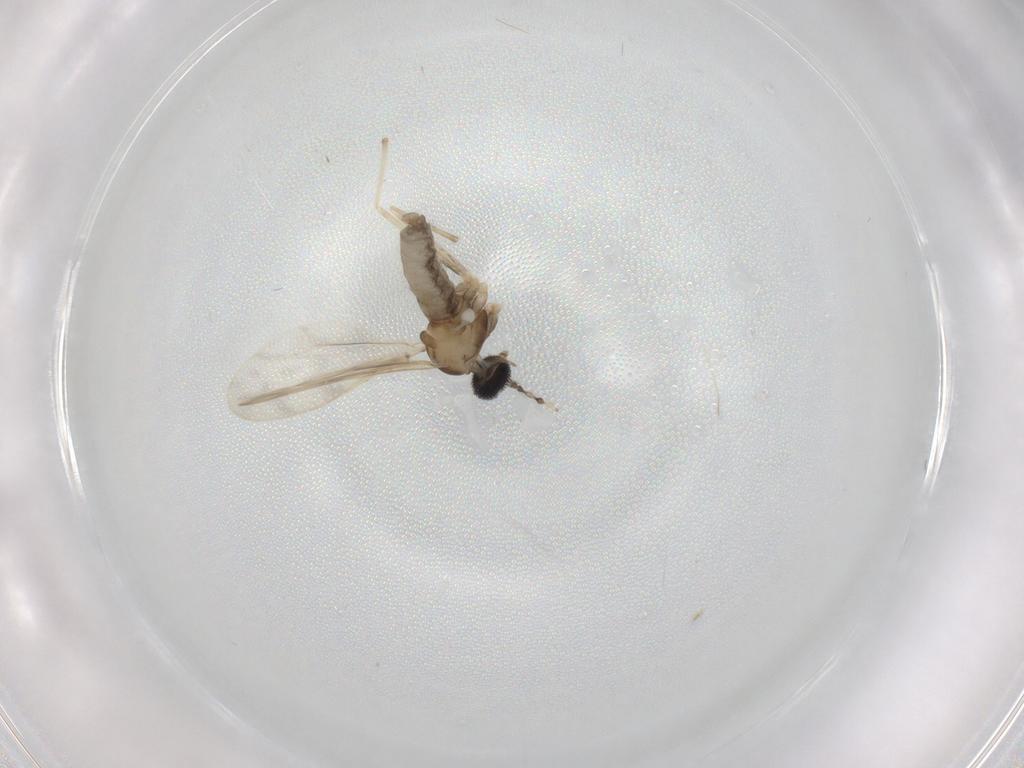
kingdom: Animalia
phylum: Arthropoda
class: Insecta
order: Diptera
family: Cecidomyiidae
